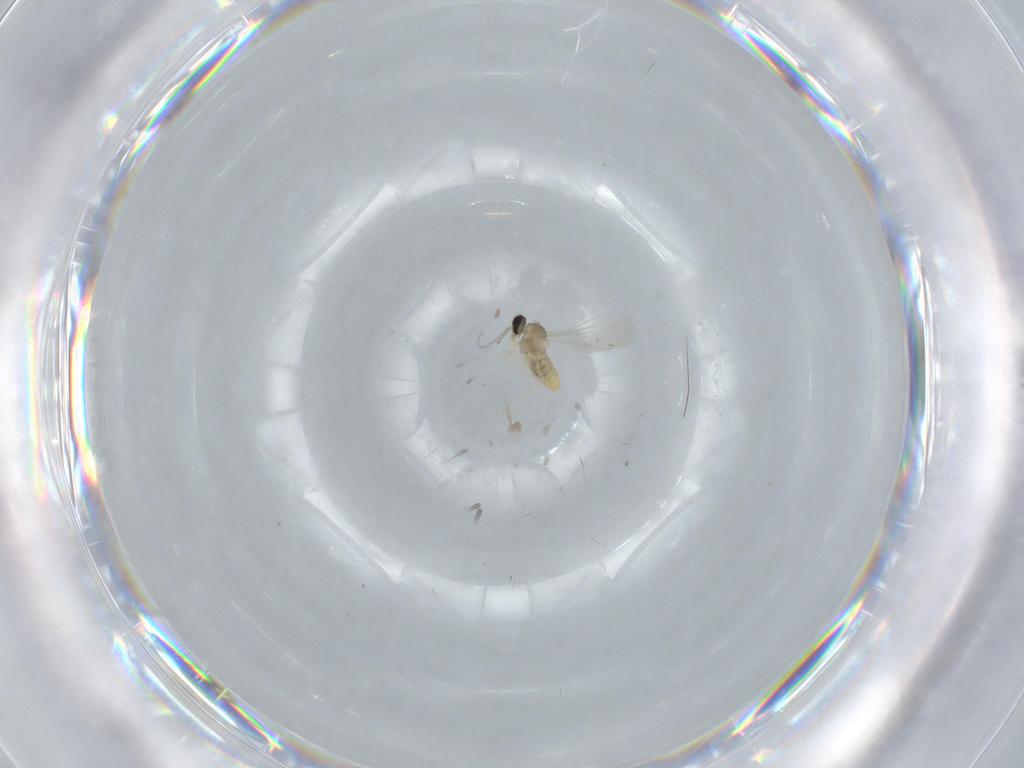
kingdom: Animalia
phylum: Arthropoda
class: Insecta
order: Diptera
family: Cecidomyiidae
